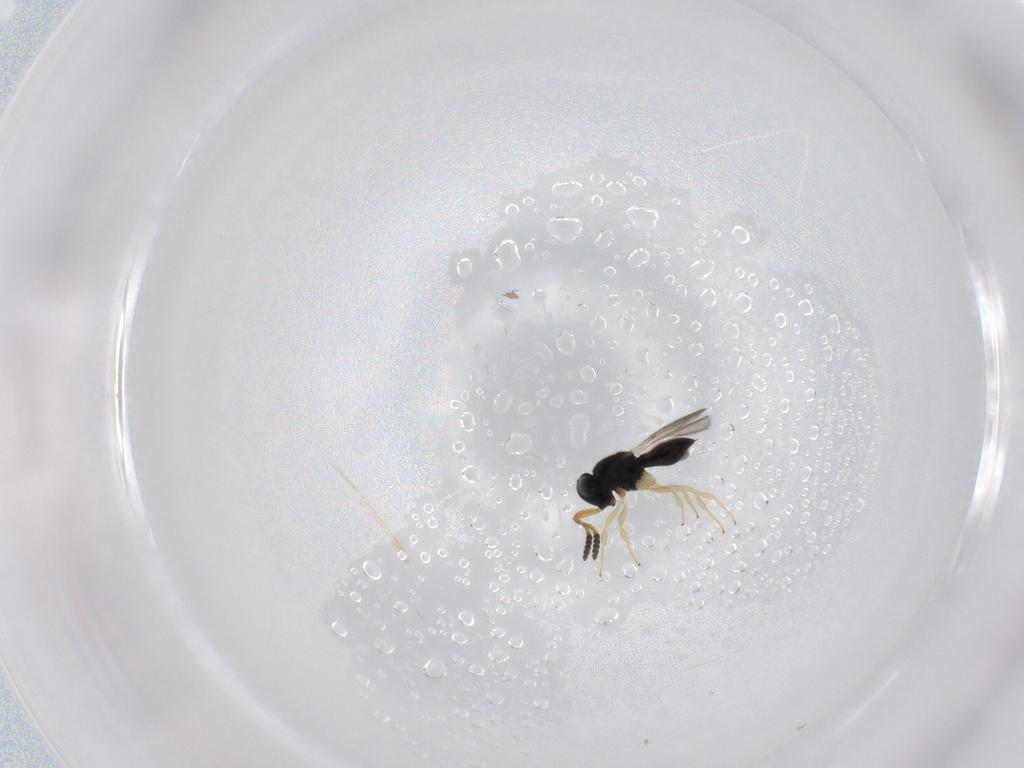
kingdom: Animalia
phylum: Arthropoda
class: Insecta
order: Hymenoptera
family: Scelionidae
